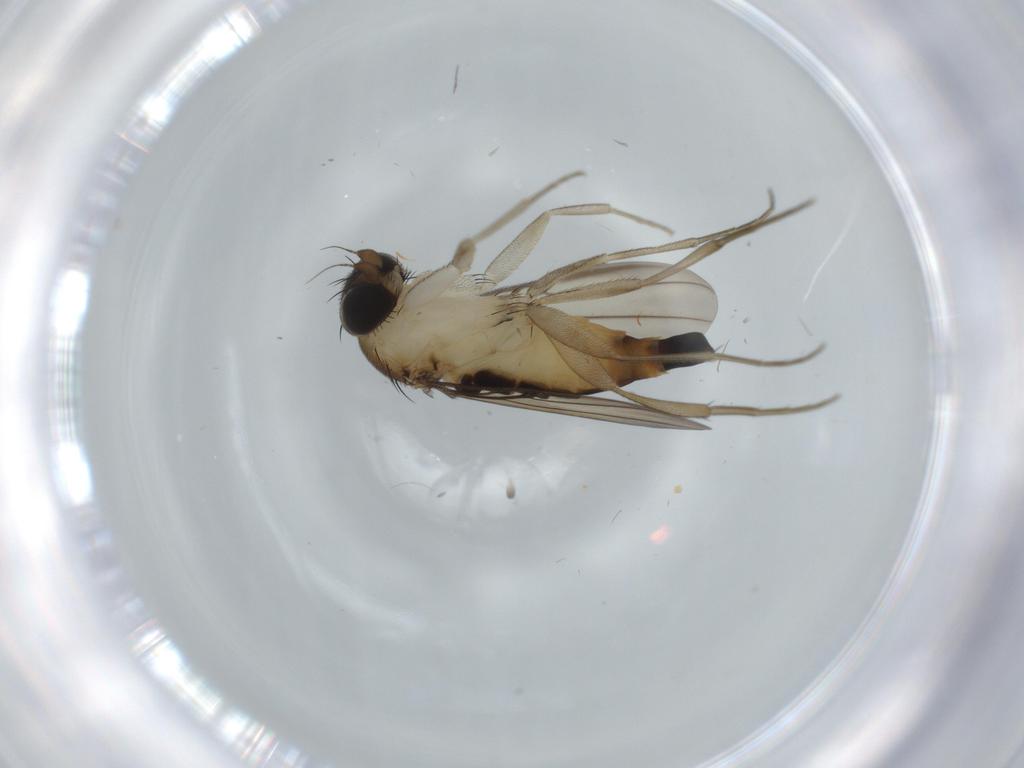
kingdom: Animalia
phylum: Arthropoda
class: Insecta
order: Diptera
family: Phoridae
